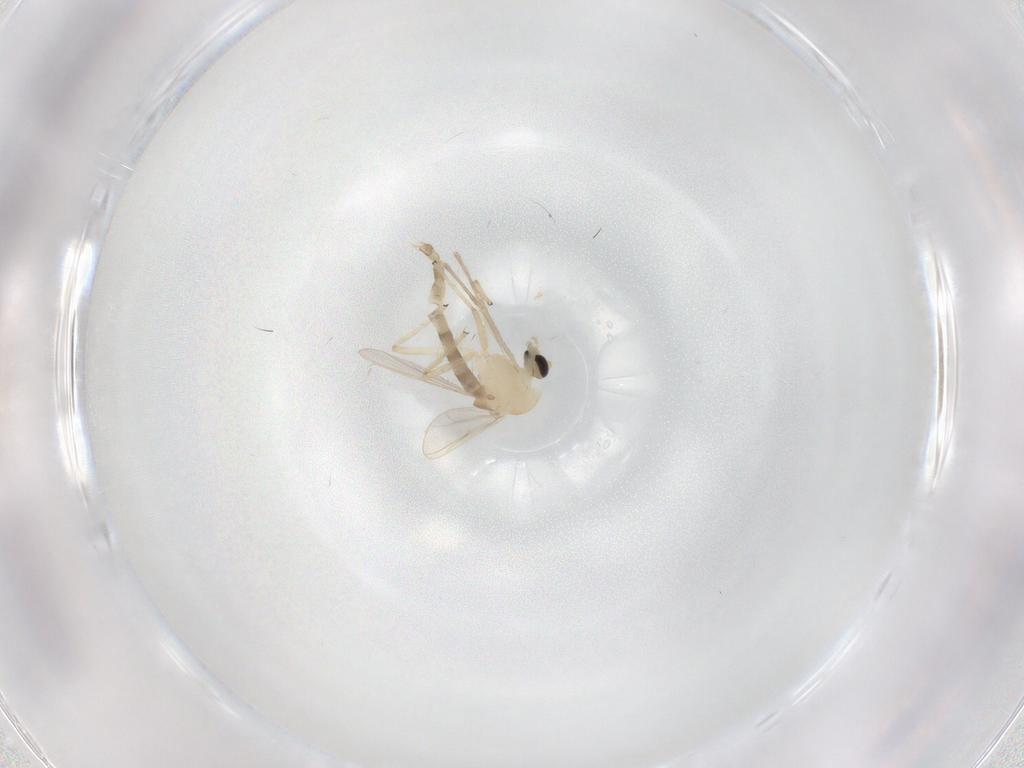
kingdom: Animalia
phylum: Arthropoda
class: Insecta
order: Diptera
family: Chironomidae
